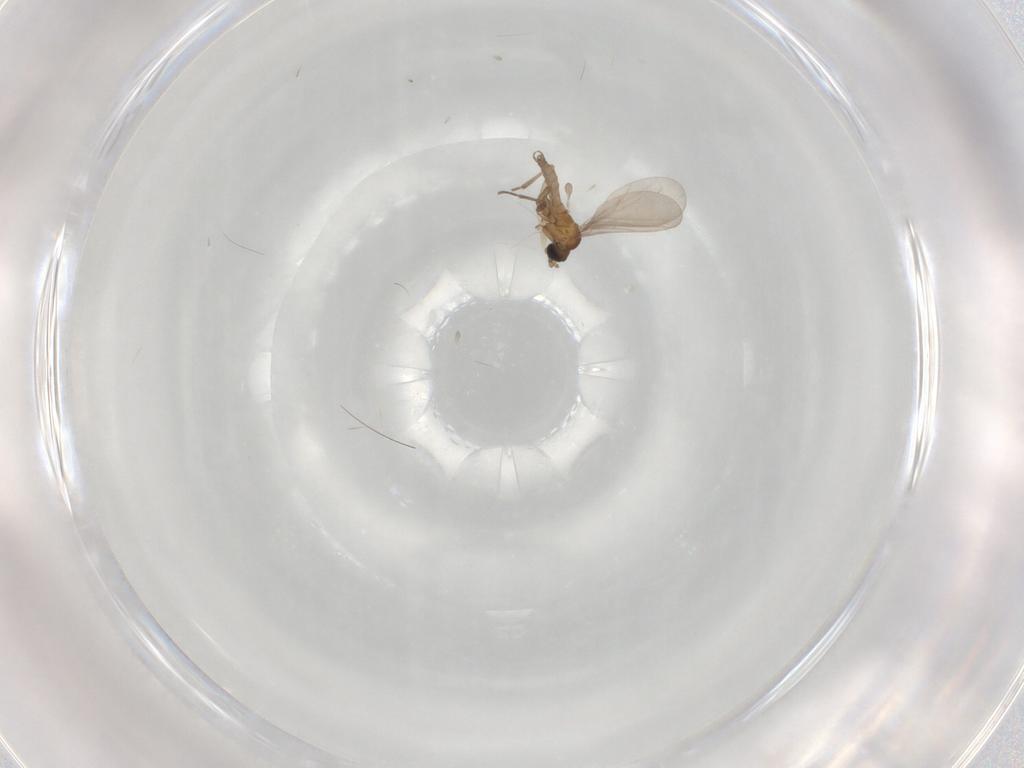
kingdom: Animalia
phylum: Arthropoda
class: Insecta
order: Diptera
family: Sciaridae
